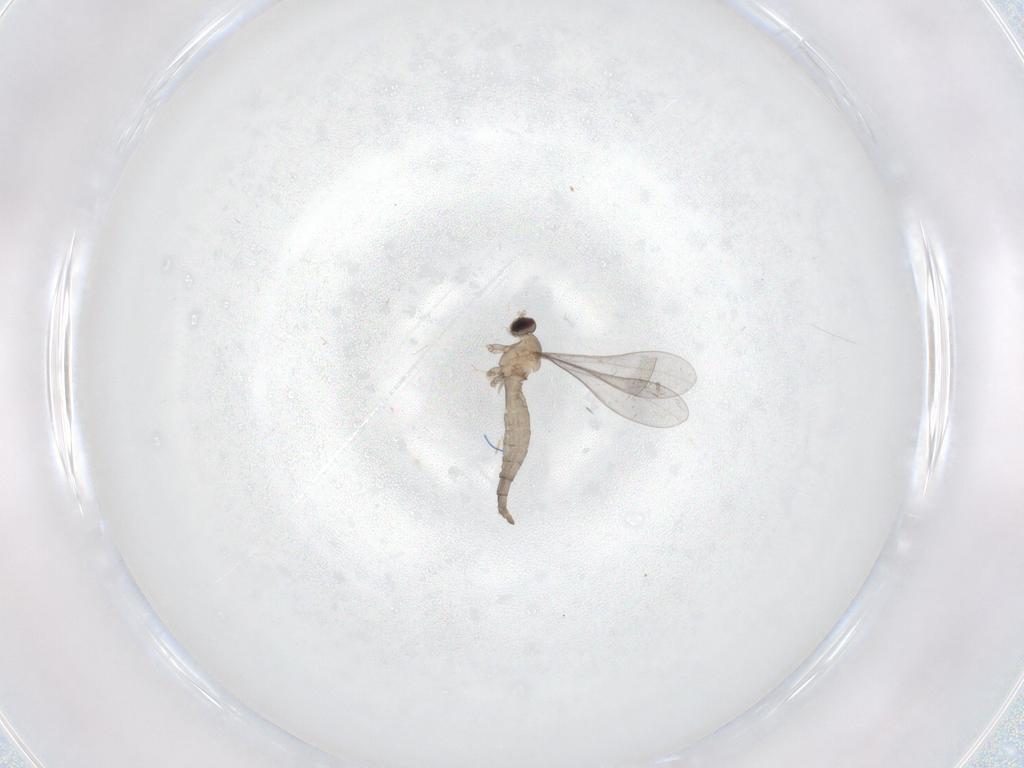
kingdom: Animalia
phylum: Arthropoda
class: Insecta
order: Diptera
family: Cecidomyiidae
